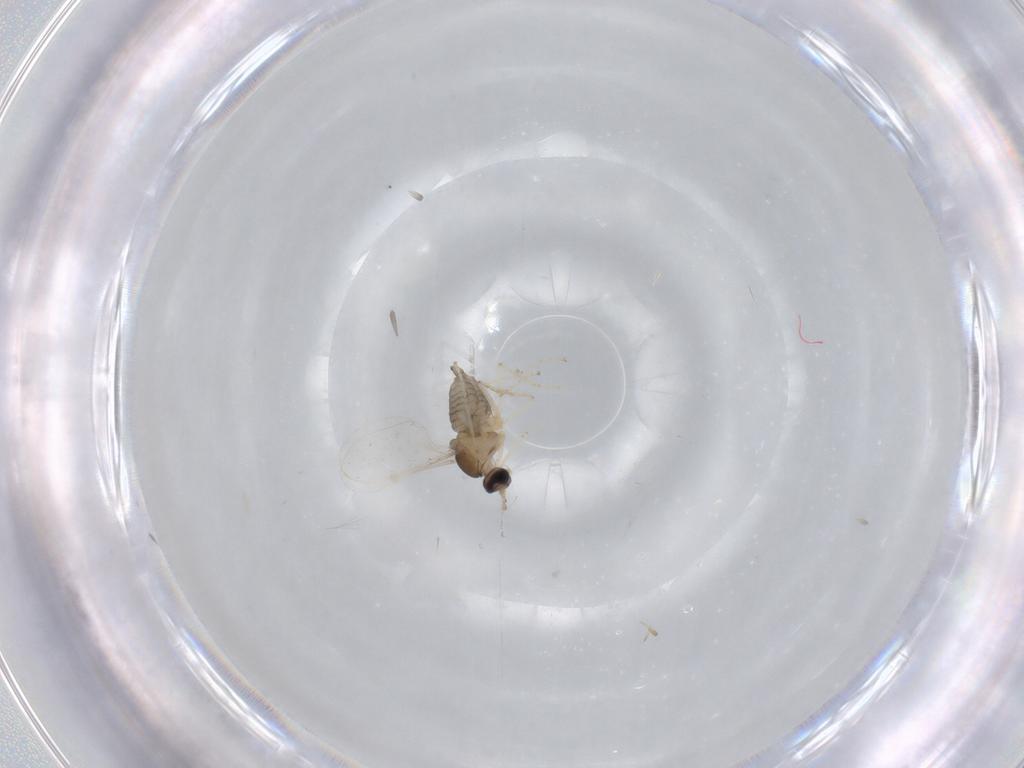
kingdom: Animalia
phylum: Arthropoda
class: Insecta
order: Diptera
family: Cecidomyiidae
